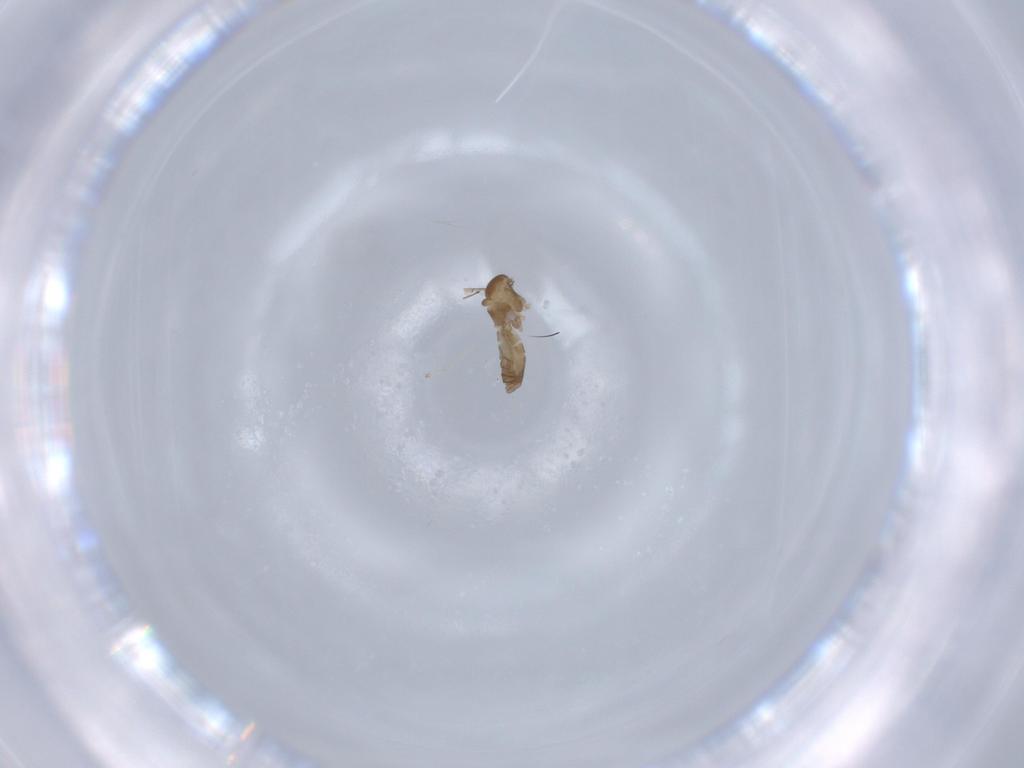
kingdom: Animalia
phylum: Arthropoda
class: Insecta
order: Diptera
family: Cecidomyiidae
